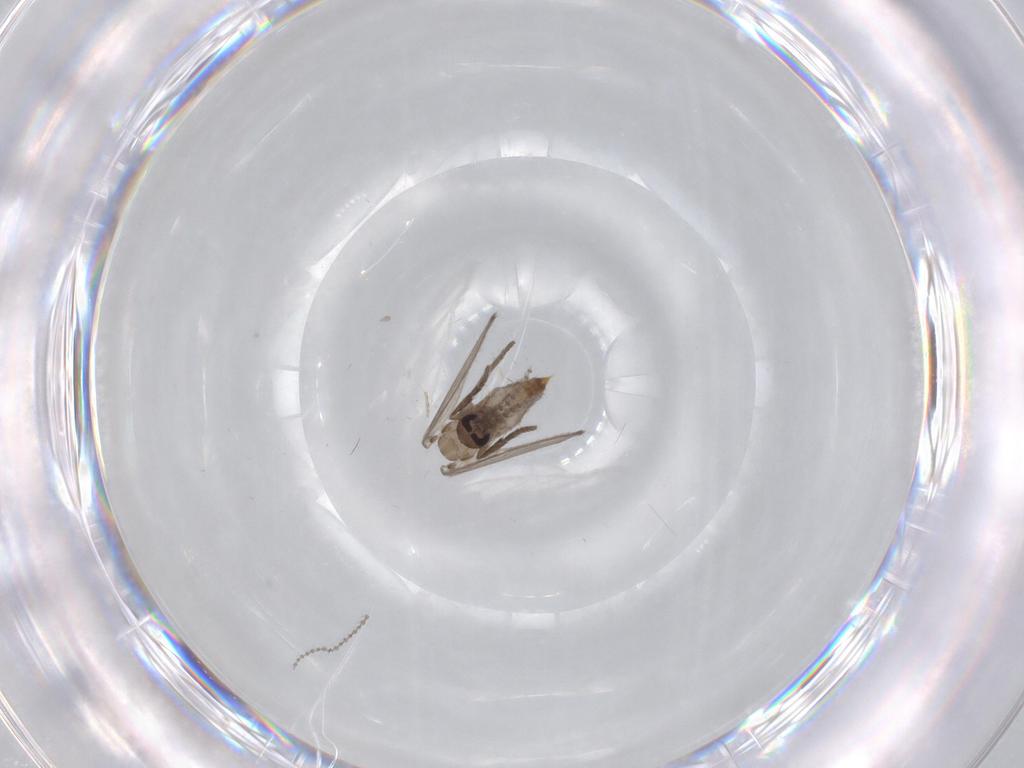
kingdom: Animalia
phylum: Arthropoda
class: Insecta
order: Diptera
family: Psychodidae
